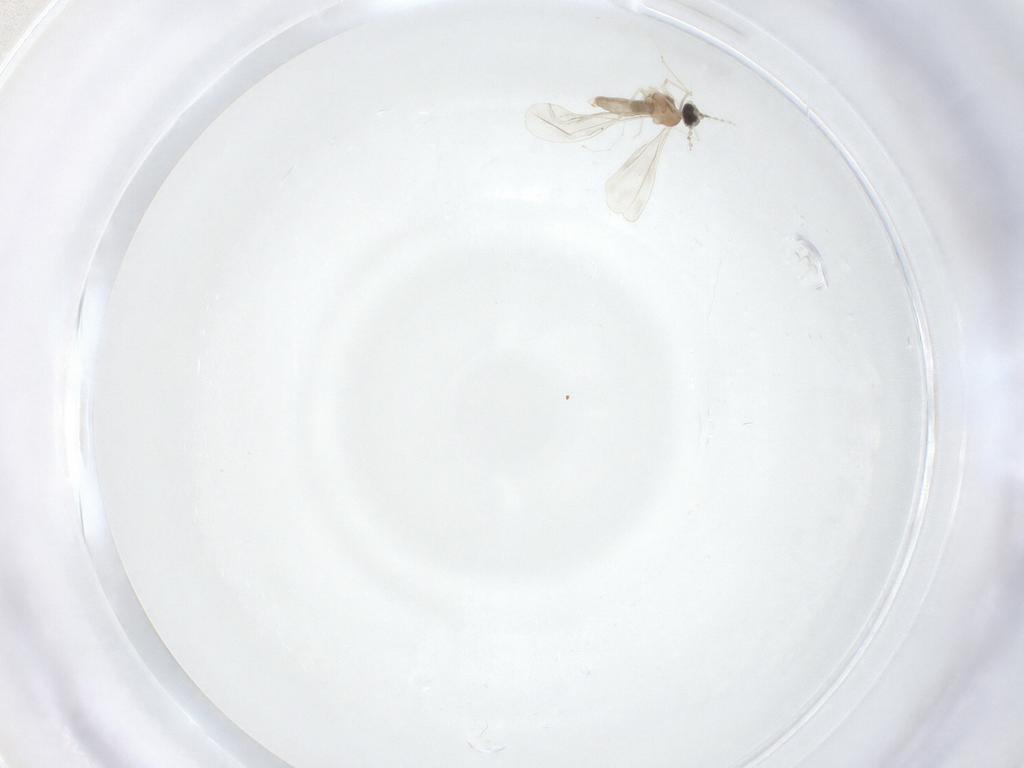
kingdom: Animalia
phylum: Arthropoda
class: Insecta
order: Diptera
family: Cecidomyiidae
